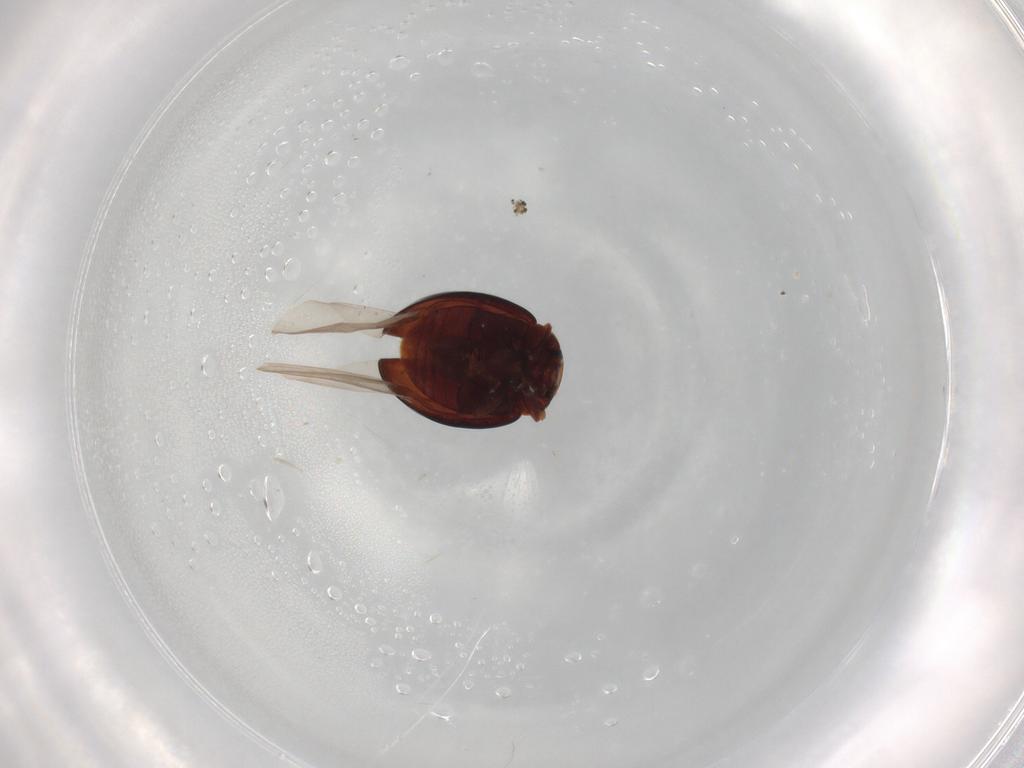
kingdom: Animalia
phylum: Arthropoda
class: Insecta
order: Coleoptera
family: Coccinellidae
